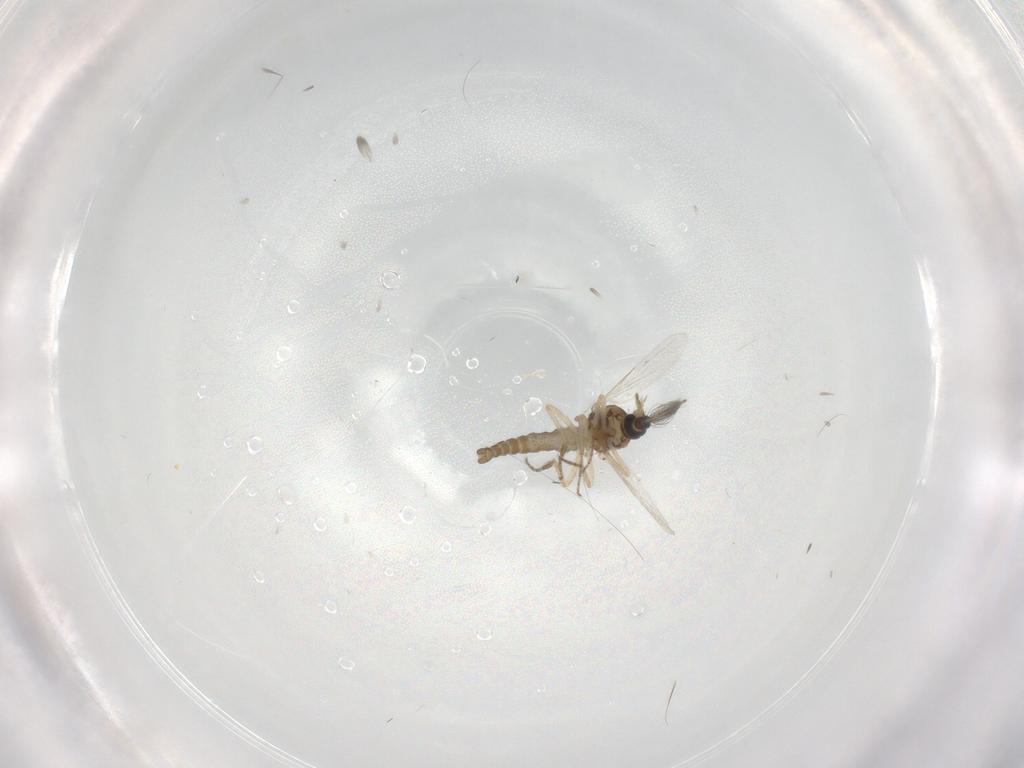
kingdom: Animalia
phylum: Arthropoda
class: Insecta
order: Diptera
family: Ceratopogonidae
